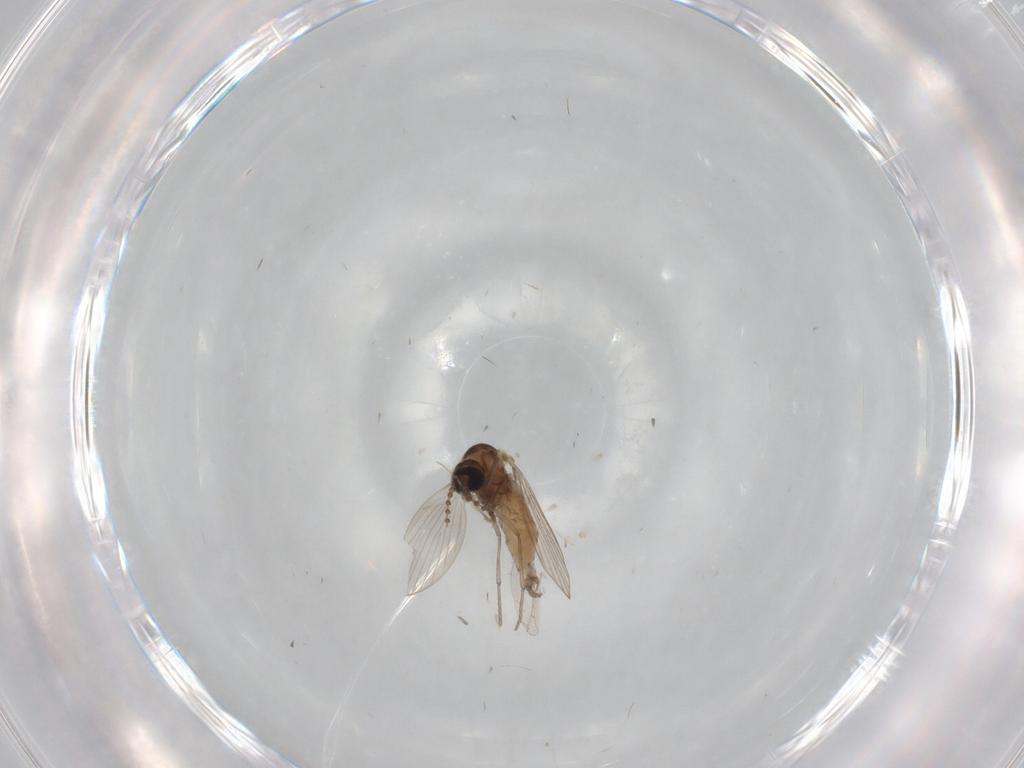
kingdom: Animalia
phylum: Arthropoda
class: Insecta
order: Diptera
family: Psychodidae
